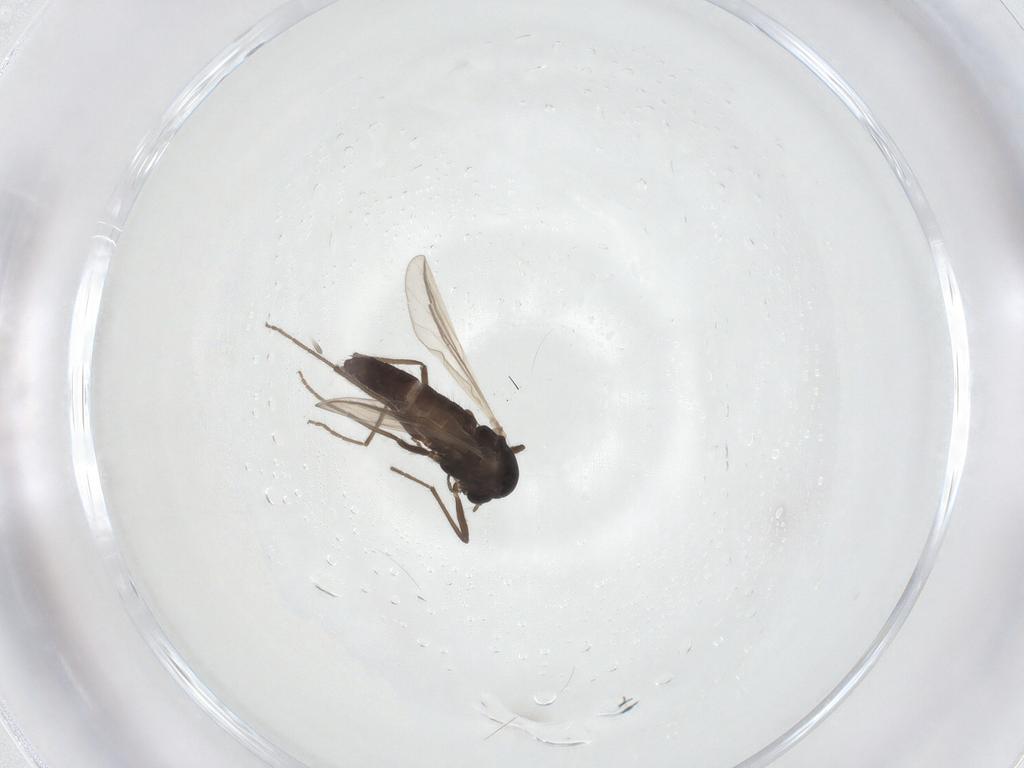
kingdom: Animalia
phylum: Arthropoda
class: Insecta
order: Diptera
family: Chironomidae
